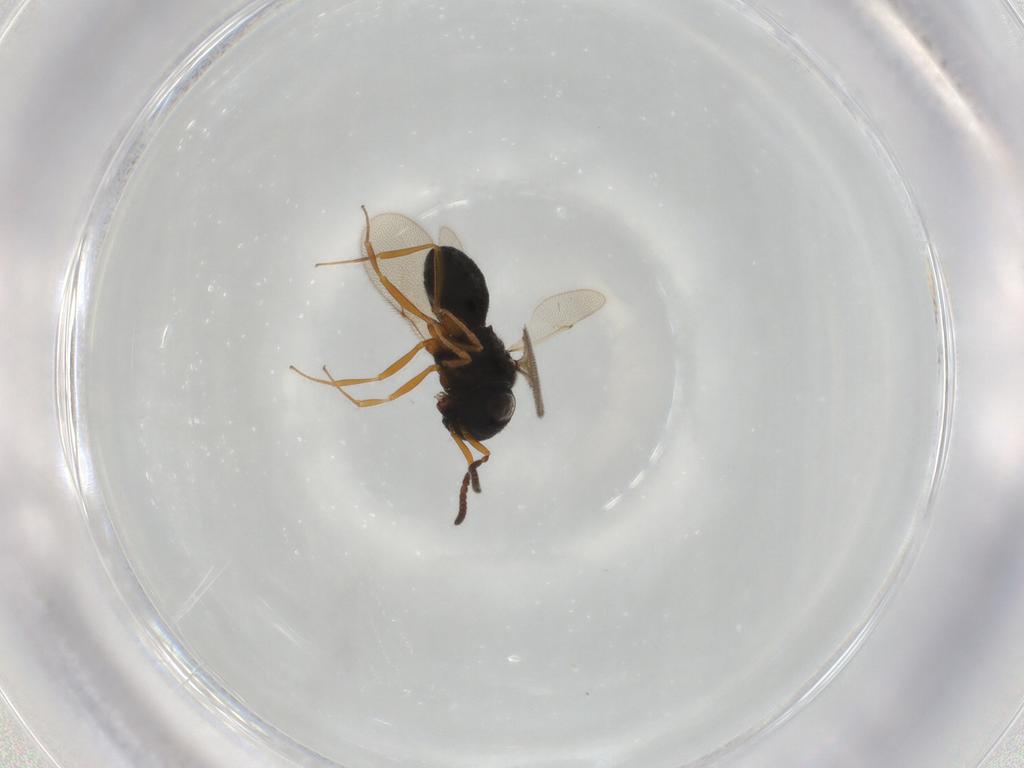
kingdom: Animalia
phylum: Arthropoda
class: Insecta
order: Hymenoptera
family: Scelionidae
